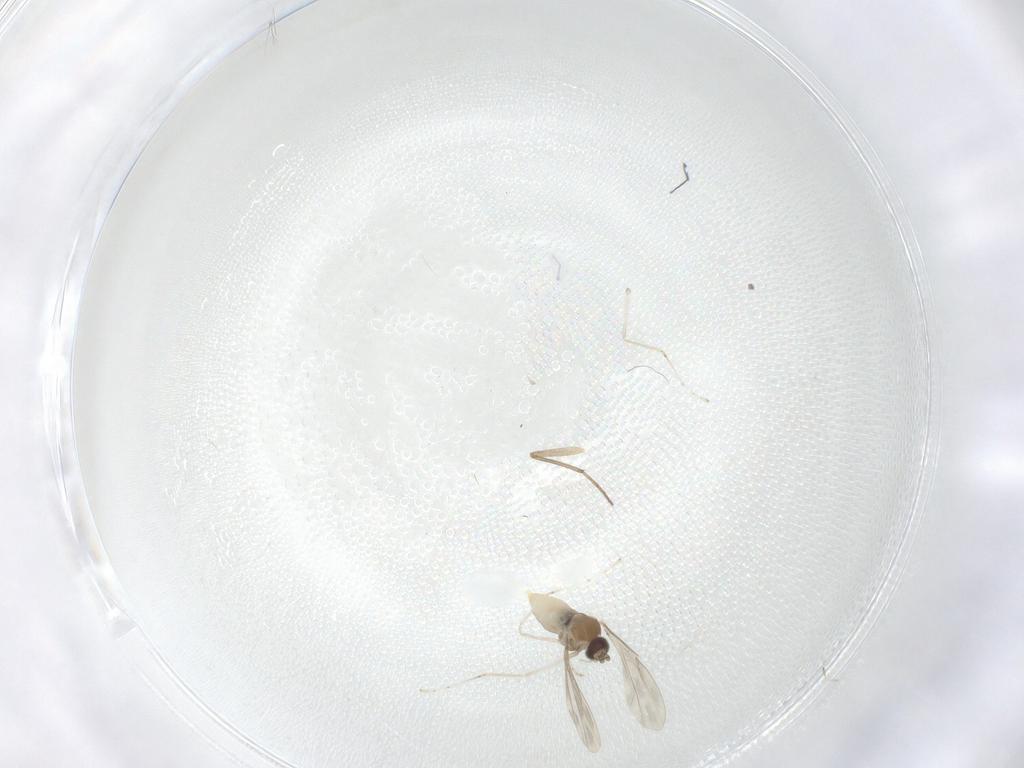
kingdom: Animalia
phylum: Arthropoda
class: Insecta
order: Diptera
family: Cecidomyiidae
